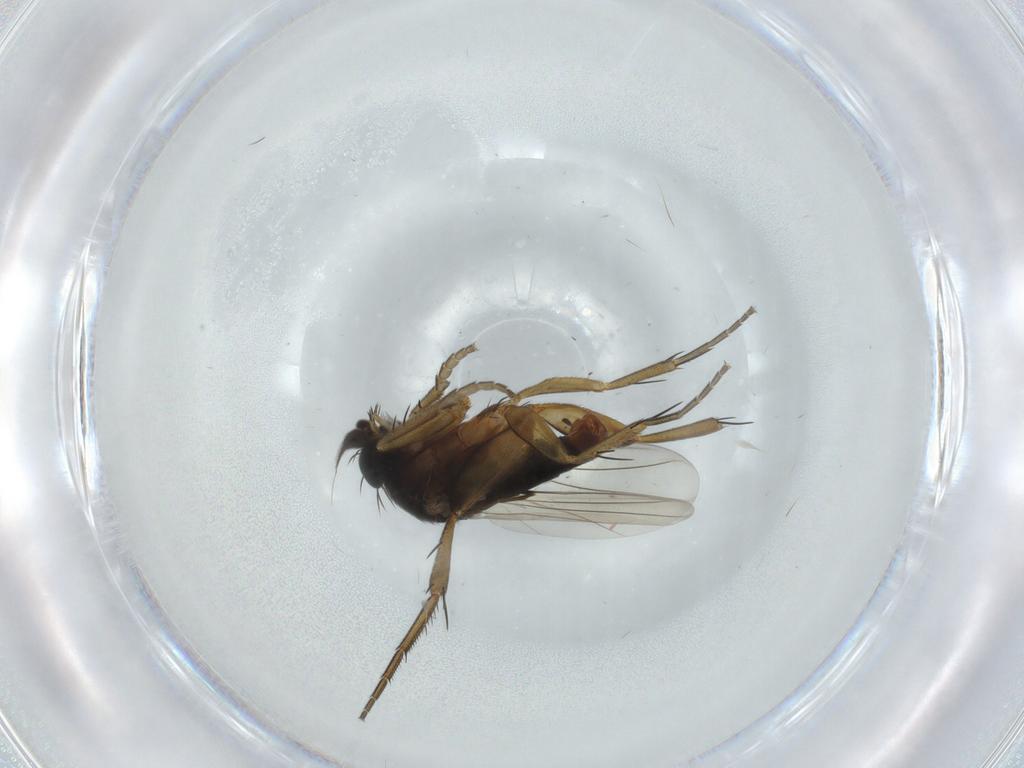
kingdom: Animalia
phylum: Arthropoda
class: Insecta
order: Diptera
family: Phoridae
